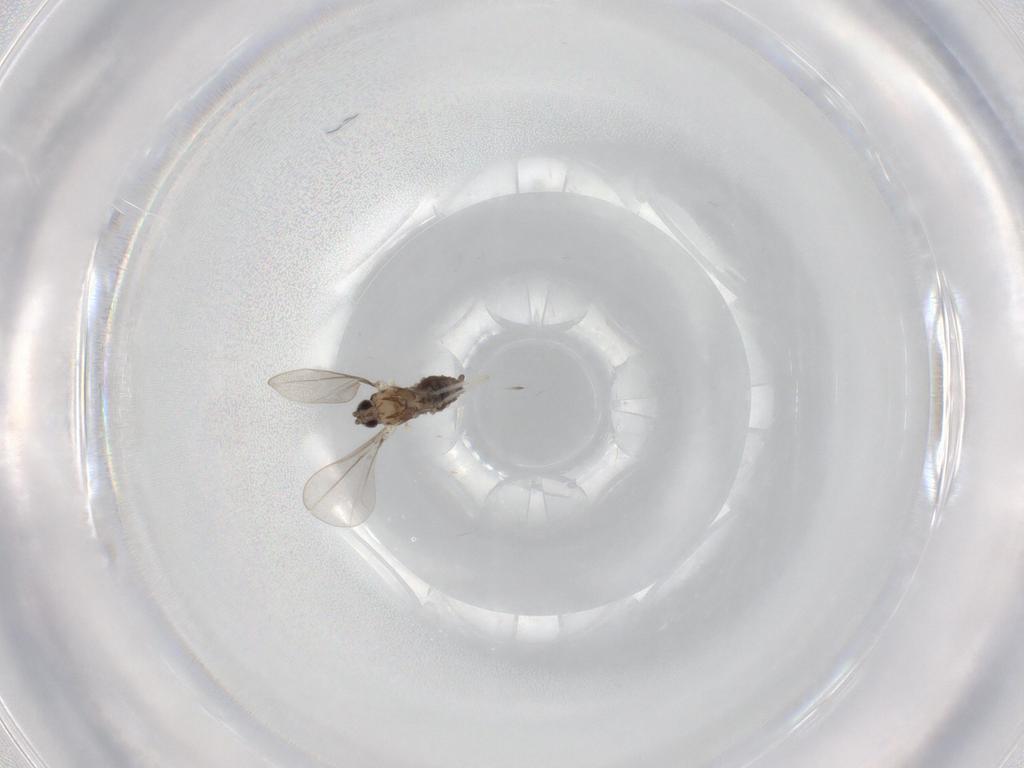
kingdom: Animalia
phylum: Arthropoda
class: Insecta
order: Diptera
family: Cecidomyiidae
